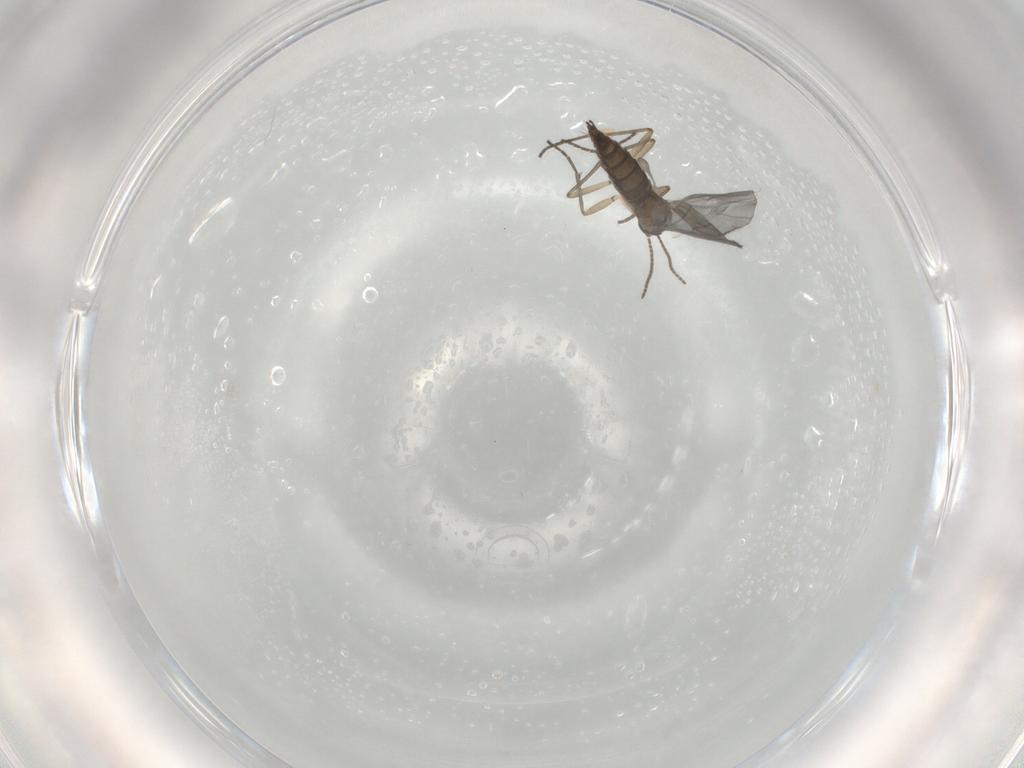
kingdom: Animalia
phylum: Arthropoda
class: Insecta
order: Diptera
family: Sciaridae
